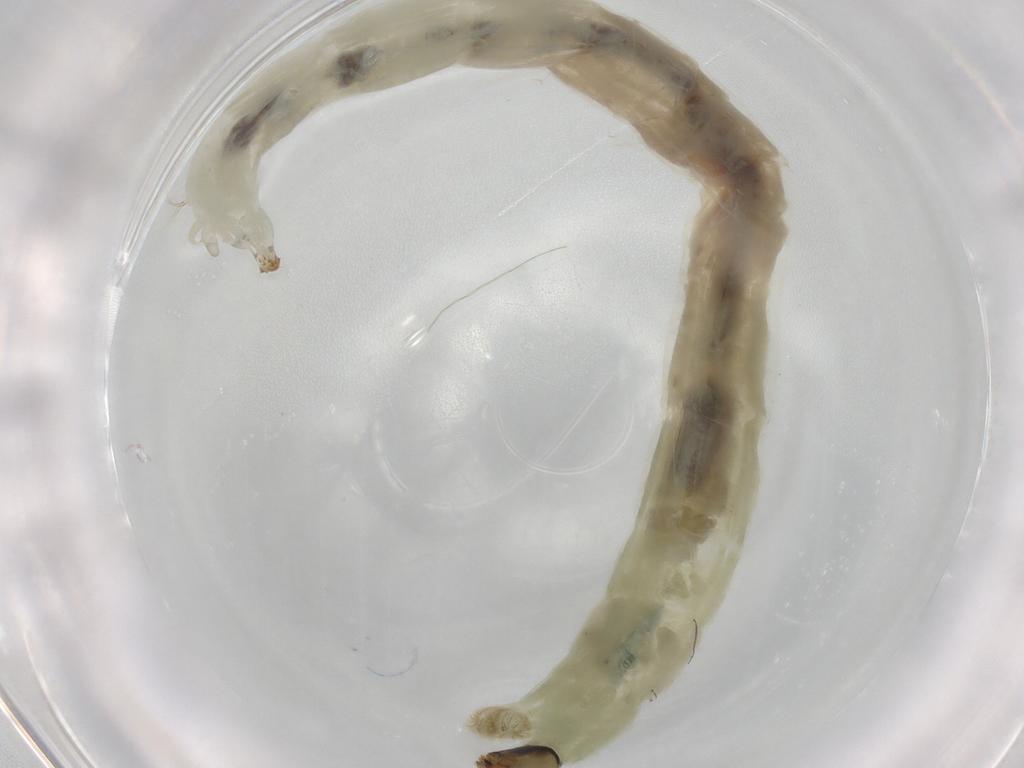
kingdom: Animalia
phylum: Arthropoda
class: Insecta
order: Diptera
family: Chironomidae
